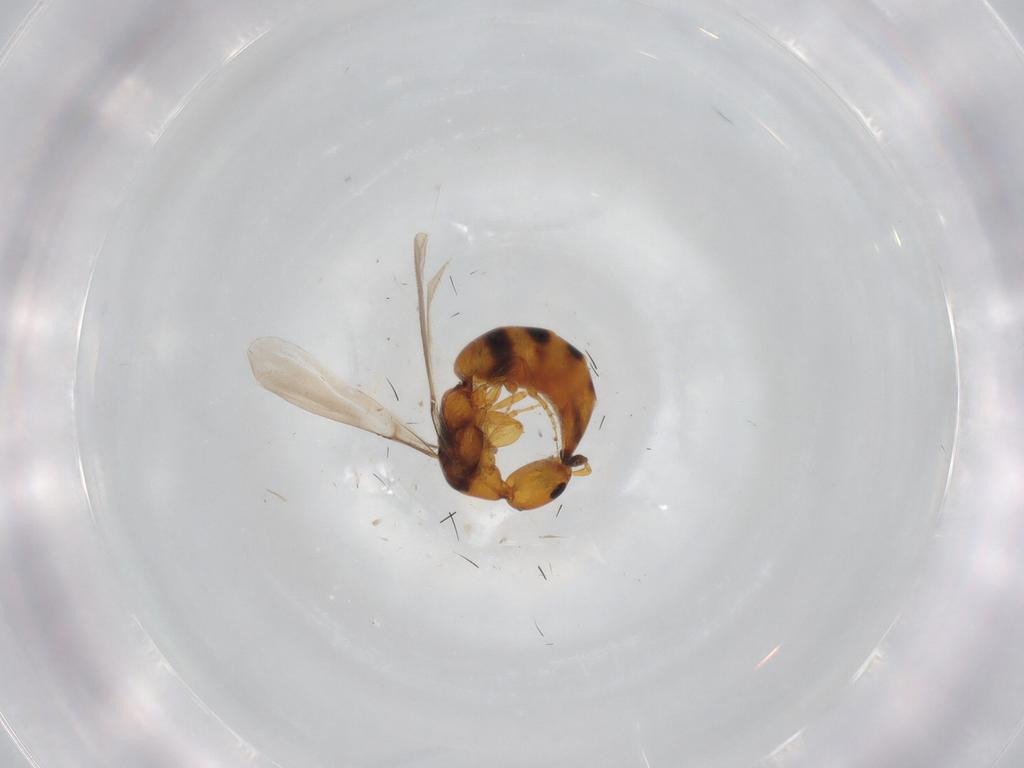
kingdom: Animalia
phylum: Arthropoda
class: Insecta
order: Hymenoptera
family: Bethylidae
